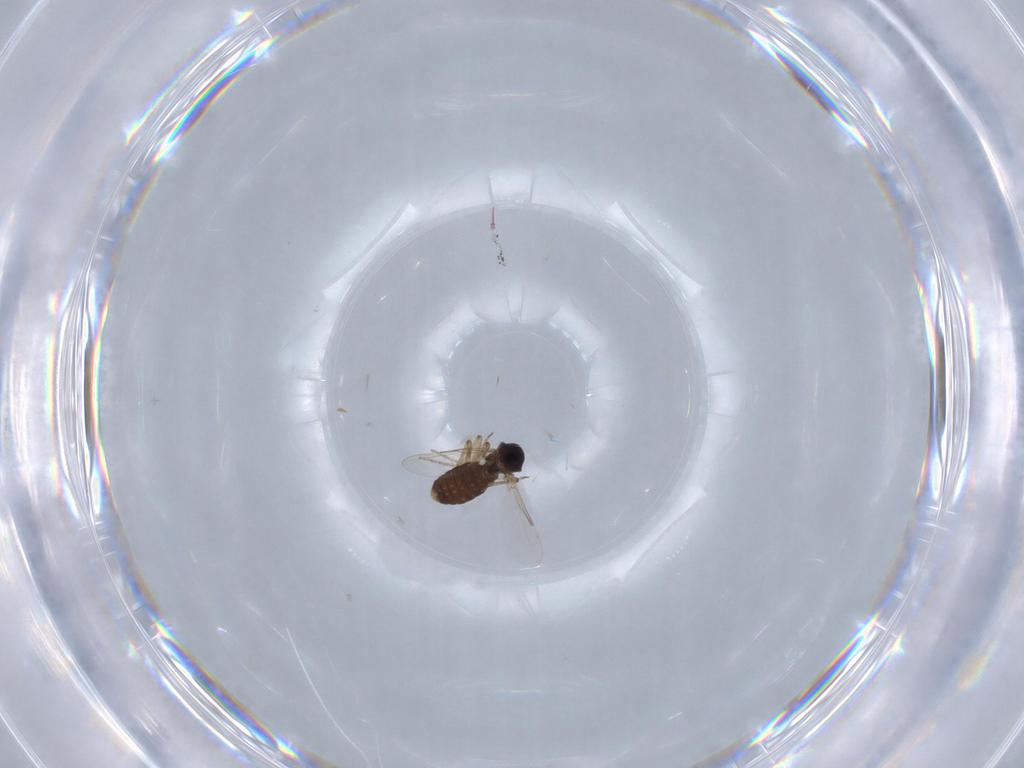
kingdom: Animalia
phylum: Arthropoda
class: Insecta
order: Diptera
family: Ceratopogonidae
